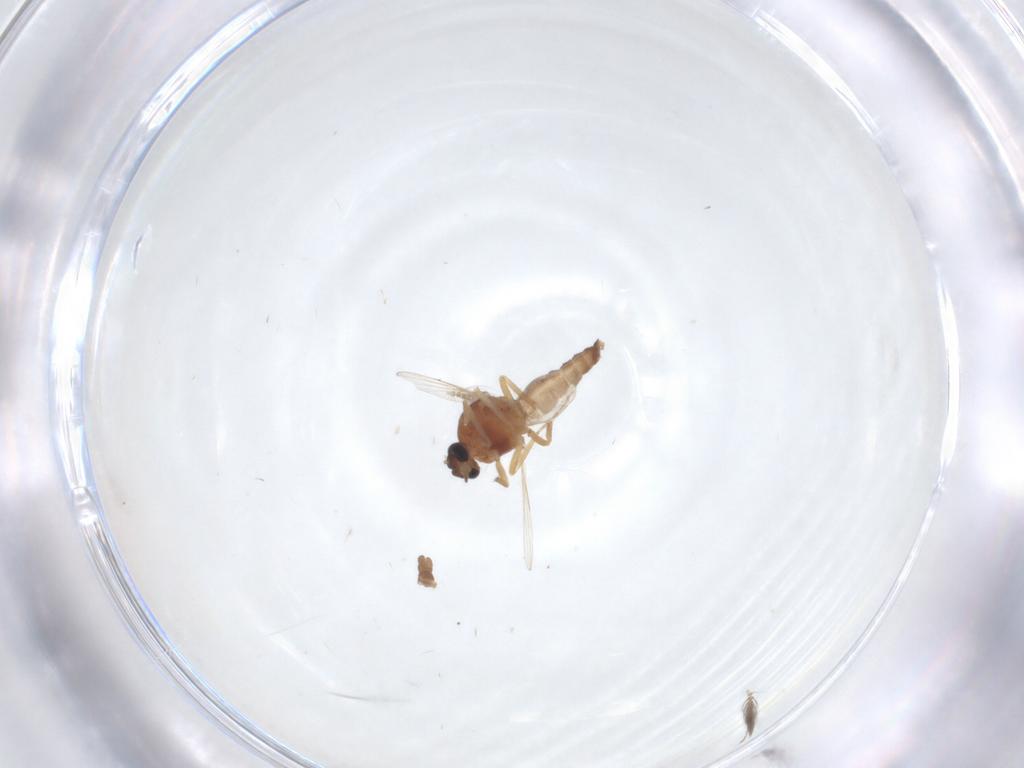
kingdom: Animalia
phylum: Arthropoda
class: Insecta
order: Diptera
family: Ceratopogonidae
